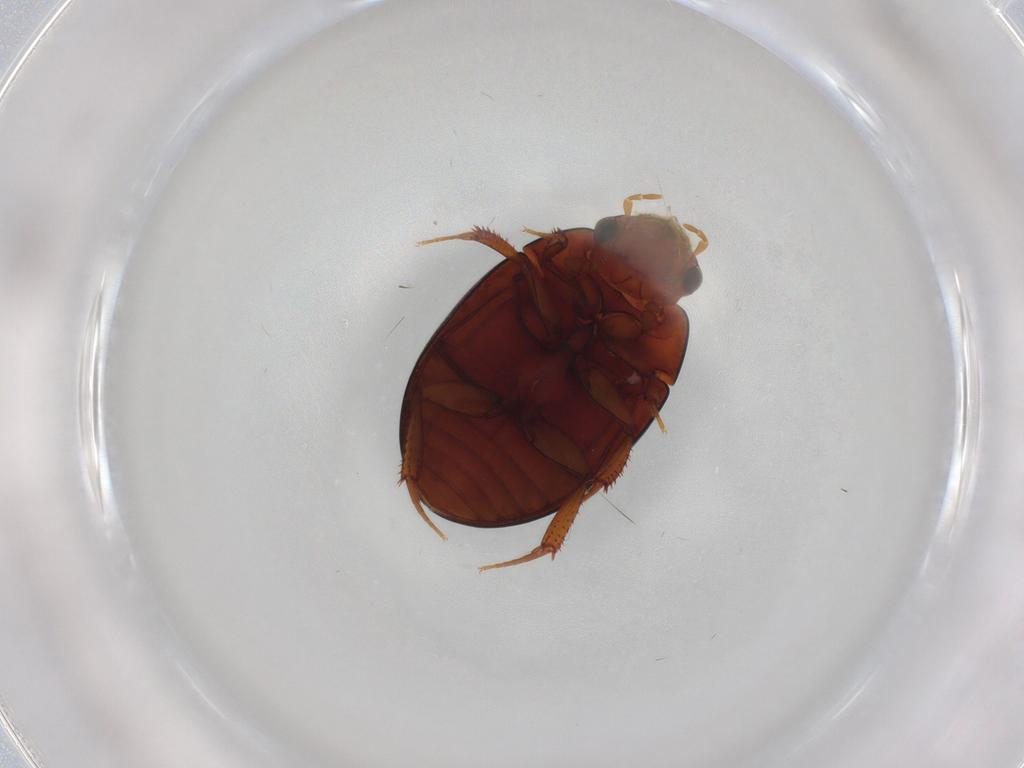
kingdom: Animalia
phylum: Arthropoda
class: Insecta
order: Coleoptera
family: Hydrophilidae
